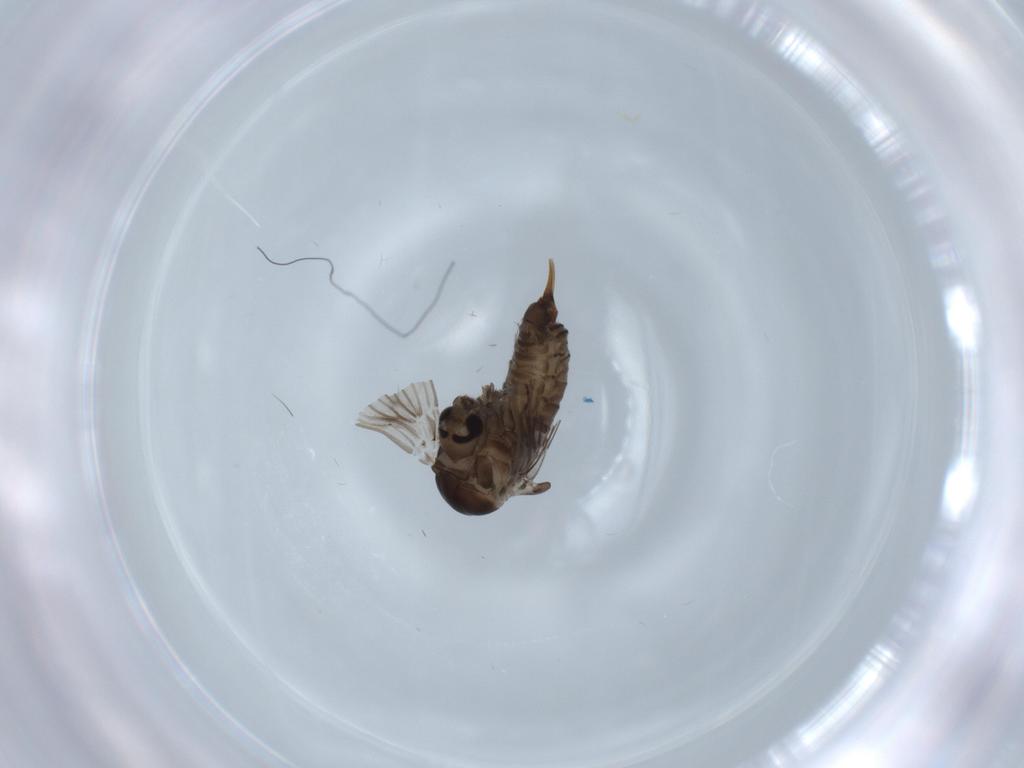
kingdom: Animalia
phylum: Arthropoda
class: Insecta
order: Diptera
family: Psychodidae
